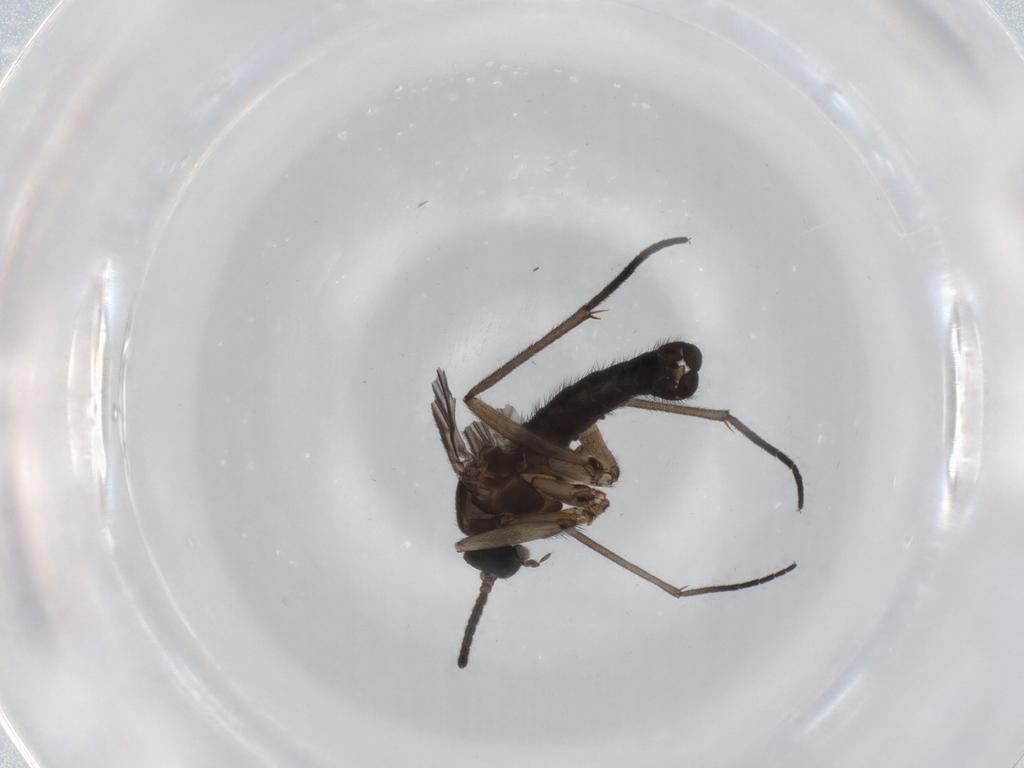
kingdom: Animalia
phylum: Arthropoda
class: Insecta
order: Diptera
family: Sciaridae
